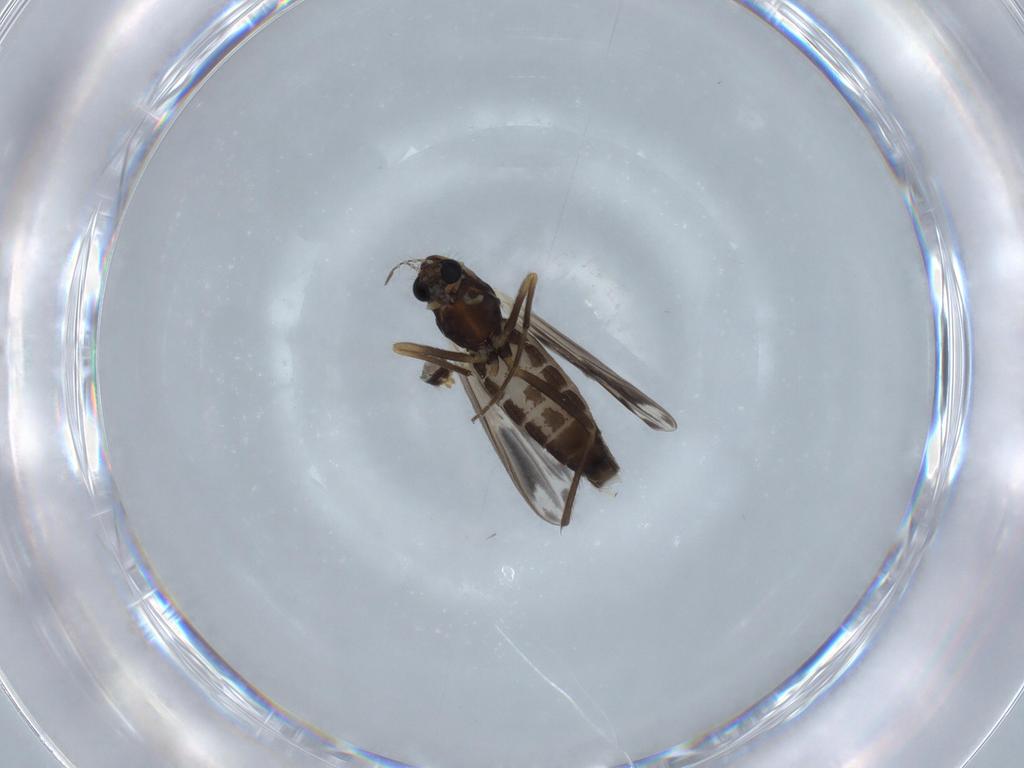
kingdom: Animalia
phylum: Arthropoda
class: Insecta
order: Diptera
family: Chironomidae
